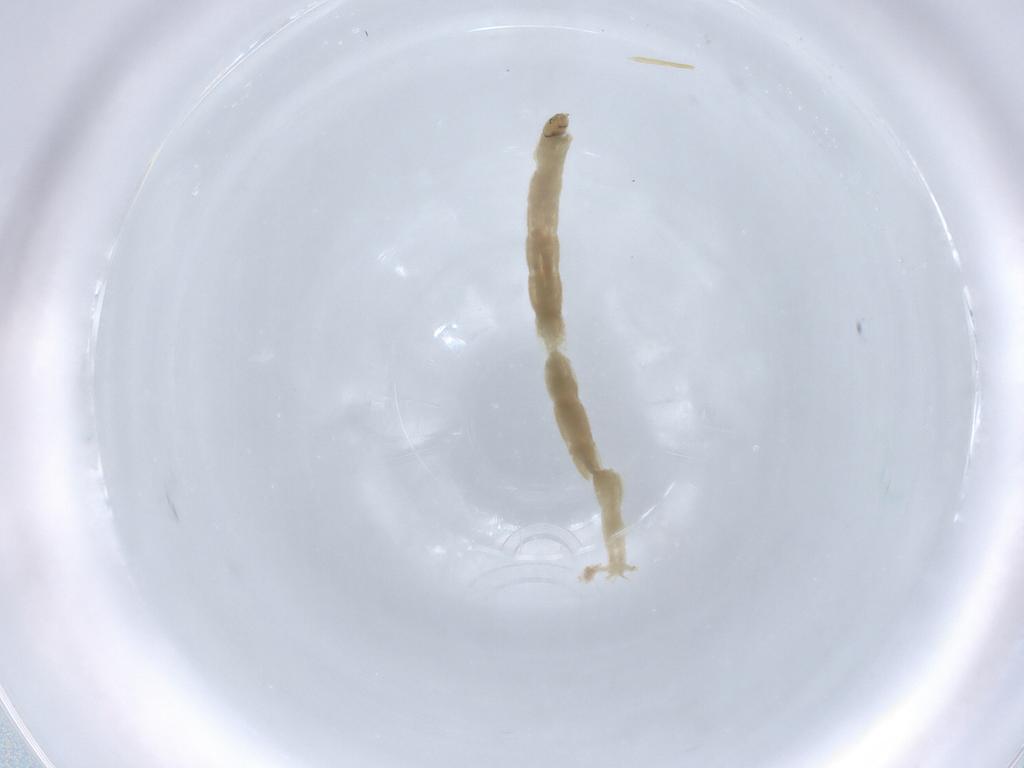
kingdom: Animalia
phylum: Arthropoda
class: Insecta
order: Diptera
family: Chironomidae
